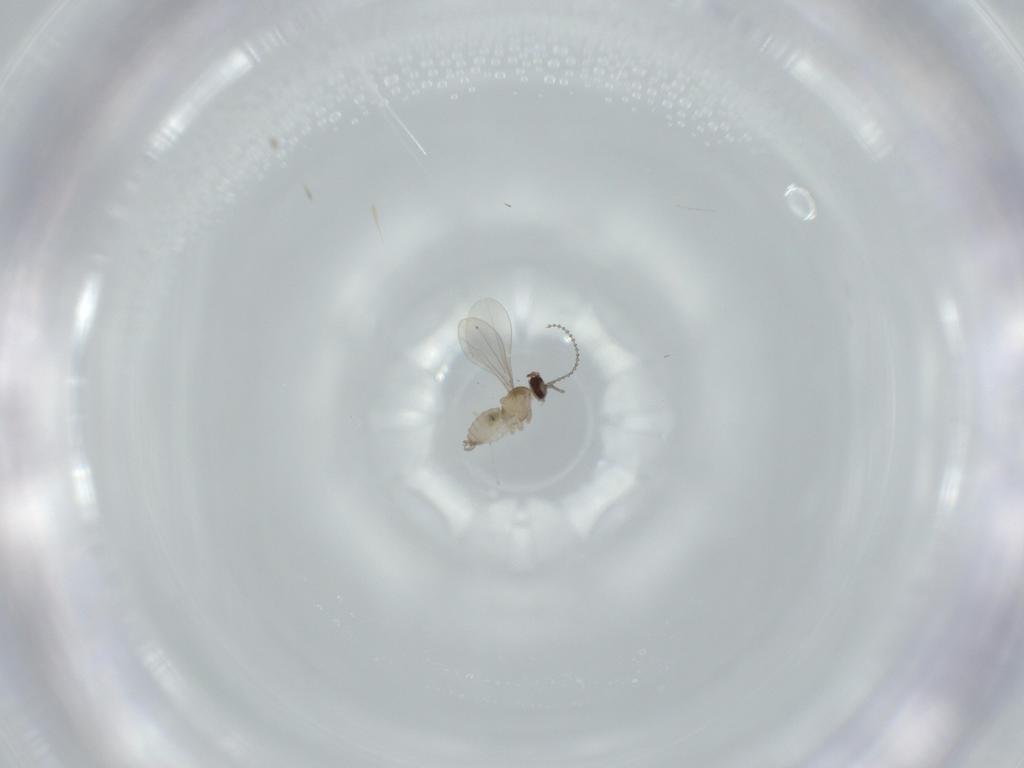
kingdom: Animalia
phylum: Arthropoda
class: Insecta
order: Diptera
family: Cecidomyiidae
